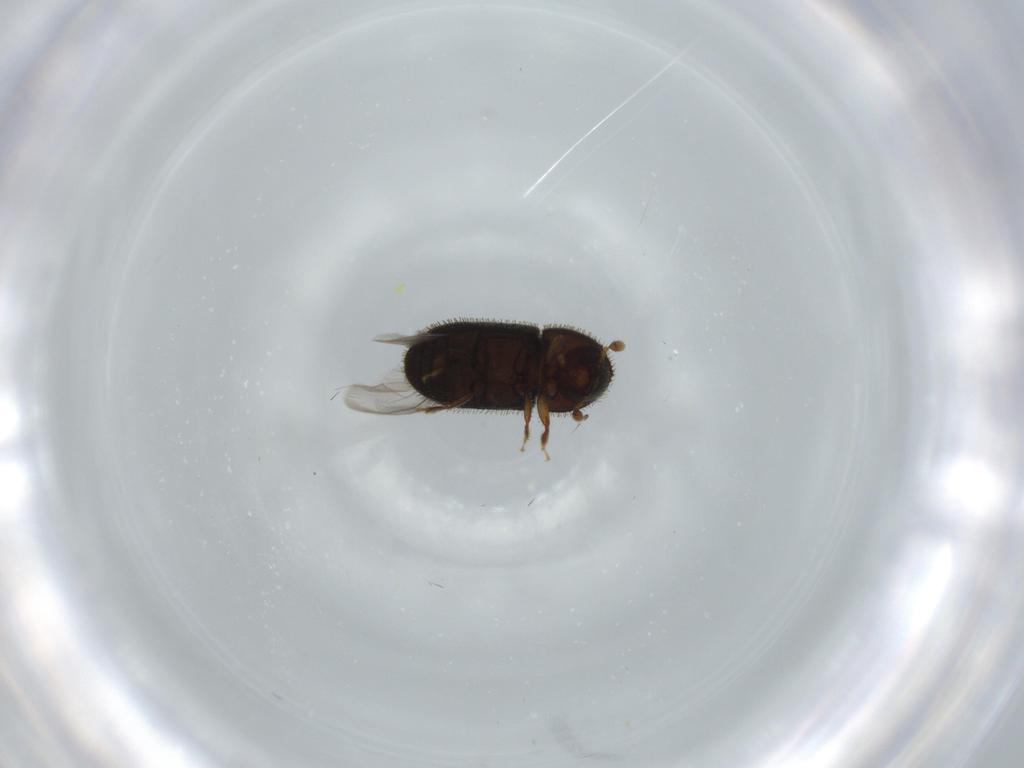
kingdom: Animalia
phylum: Arthropoda
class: Insecta
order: Coleoptera
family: Curculionidae
